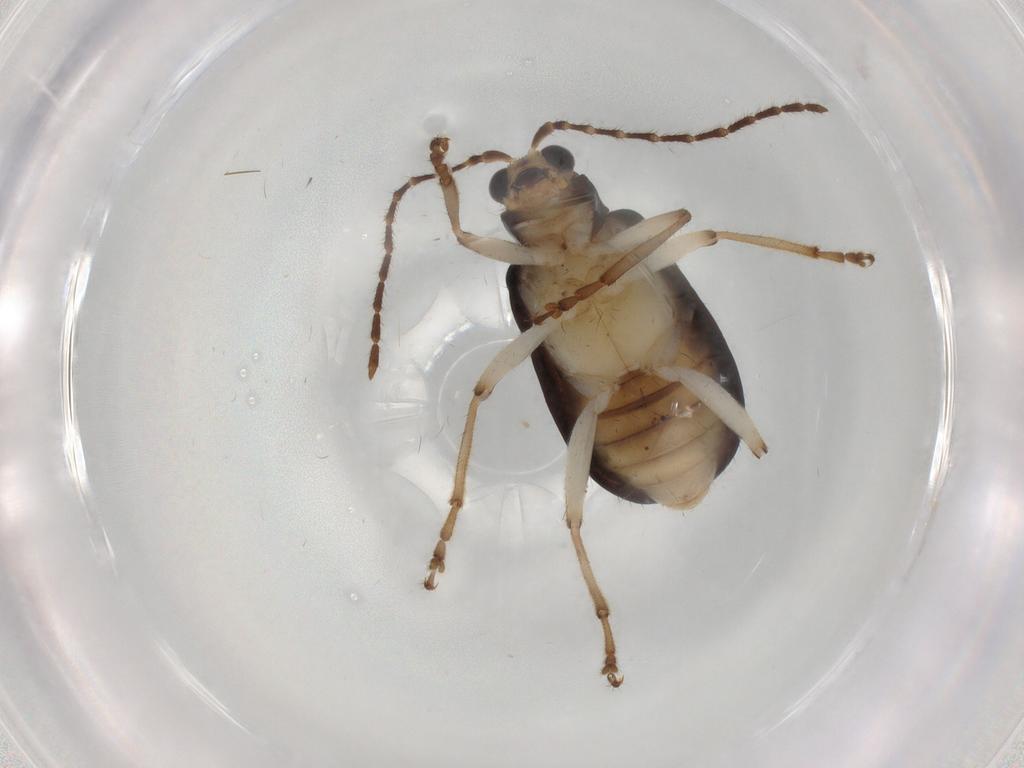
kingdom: Animalia
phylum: Arthropoda
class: Insecta
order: Coleoptera
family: Chrysomelidae
